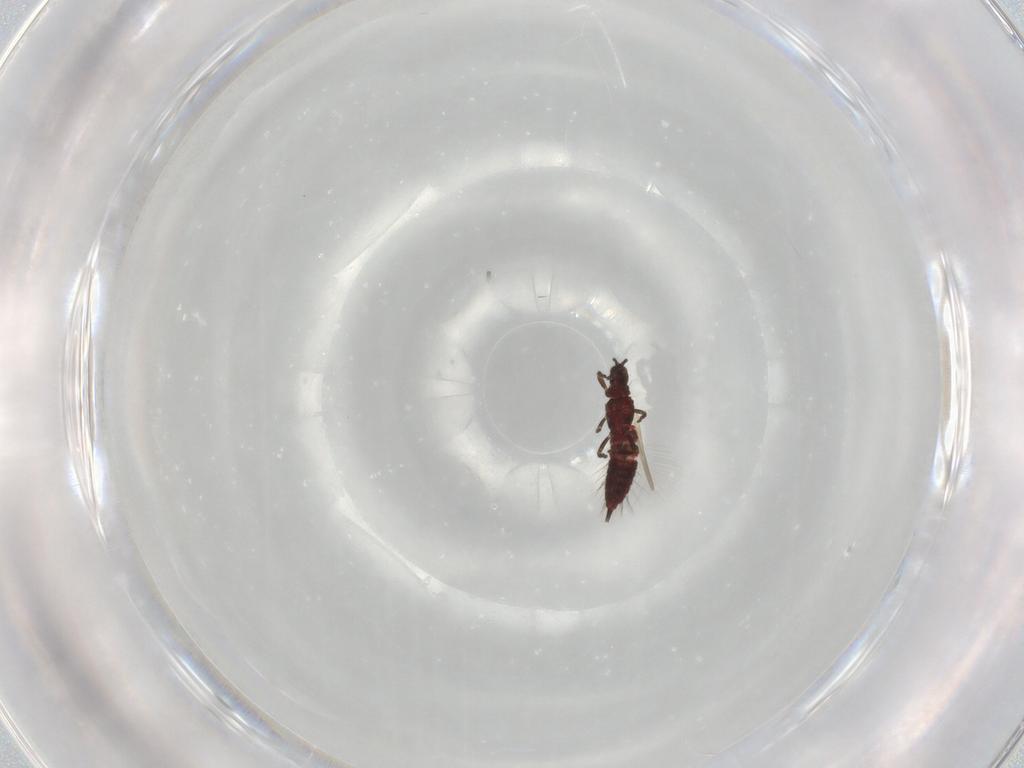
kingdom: Animalia
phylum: Arthropoda
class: Insecta
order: Thysanoptera
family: Phlaeothripidae
